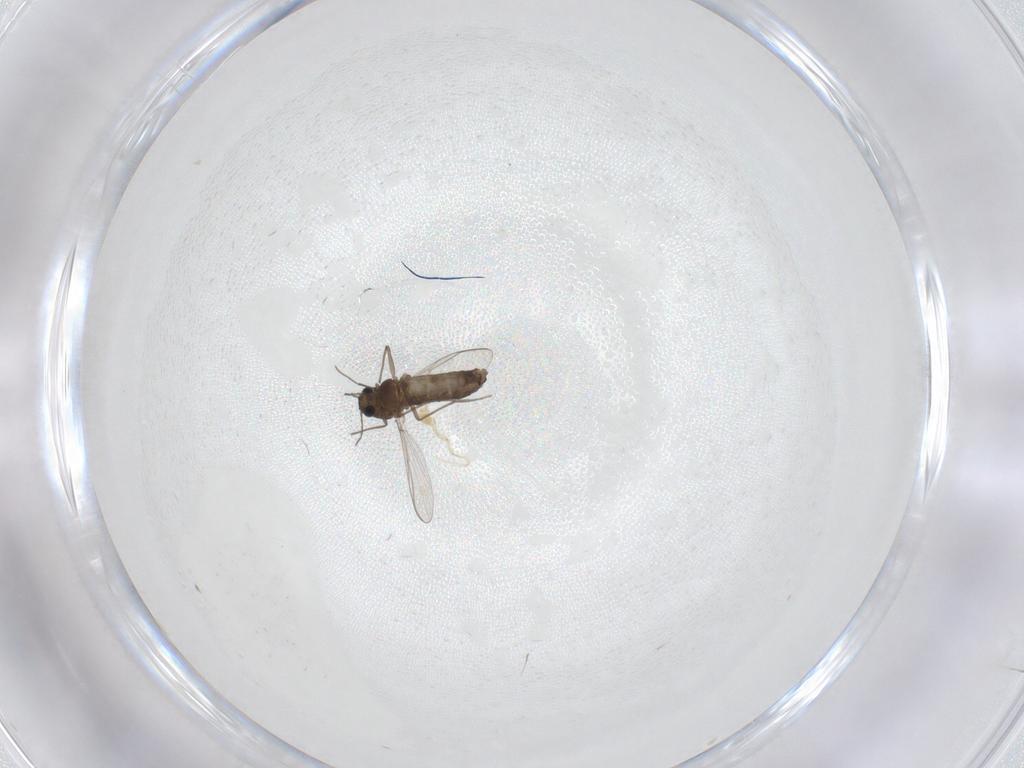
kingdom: Animalia
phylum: Arthropoda
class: Insecta
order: Diptera
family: Chironomidae
